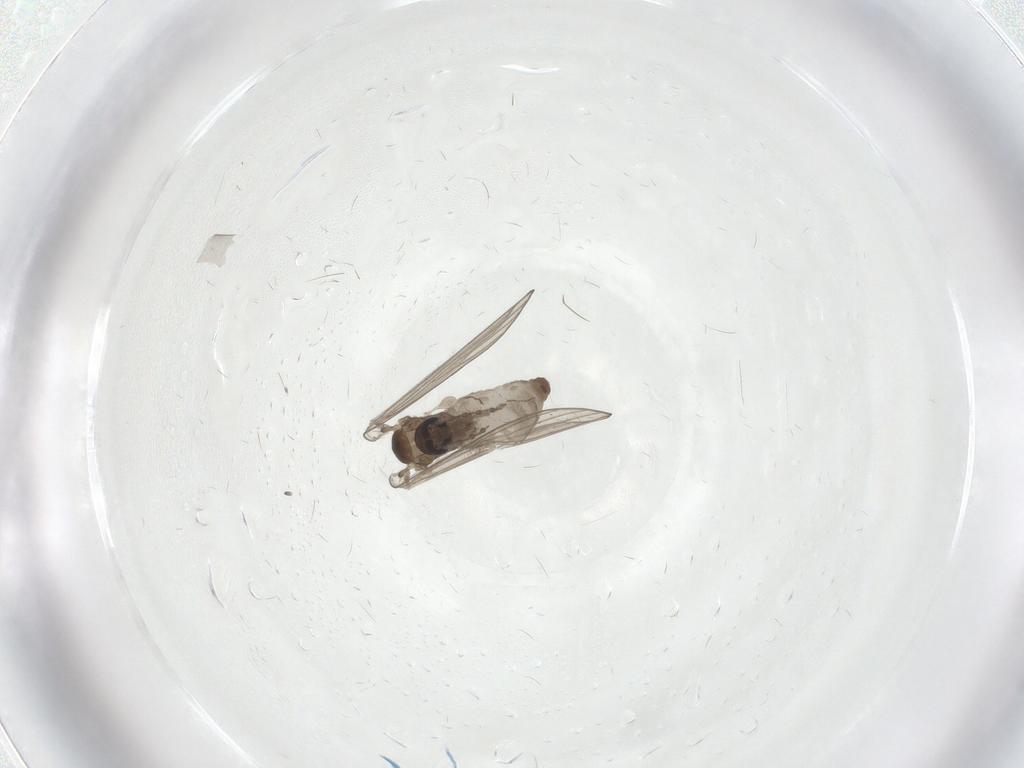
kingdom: Animalia
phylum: Arthropoda
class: Insecta
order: Diptera
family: Psychodidae
